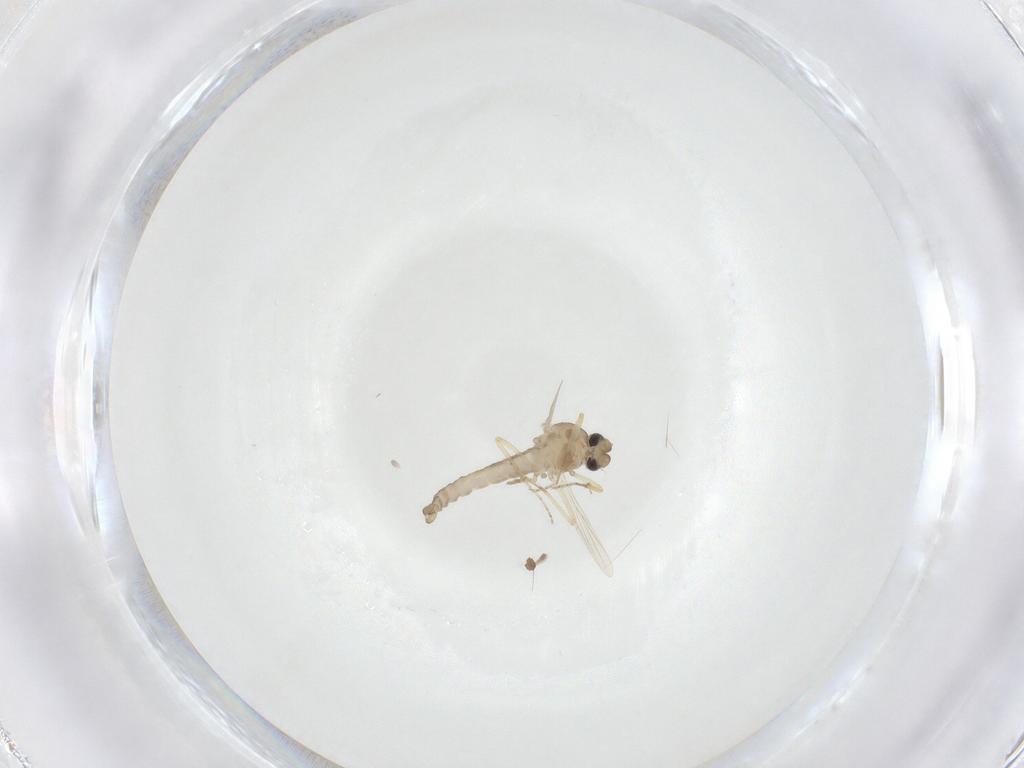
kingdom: Animalia
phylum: Arthropoda
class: Insecta
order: Diptera
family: Ceratopogonidae
